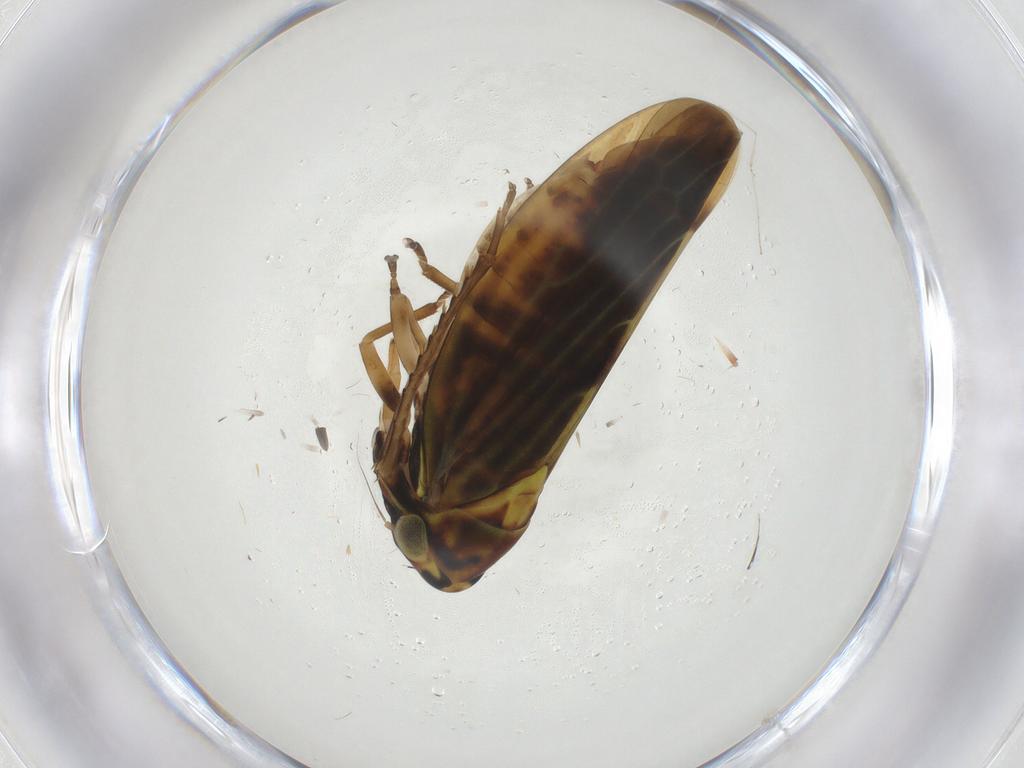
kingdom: Animalia
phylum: Arthropoda
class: Insecta
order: Hemiptera
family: Cicadellidae
